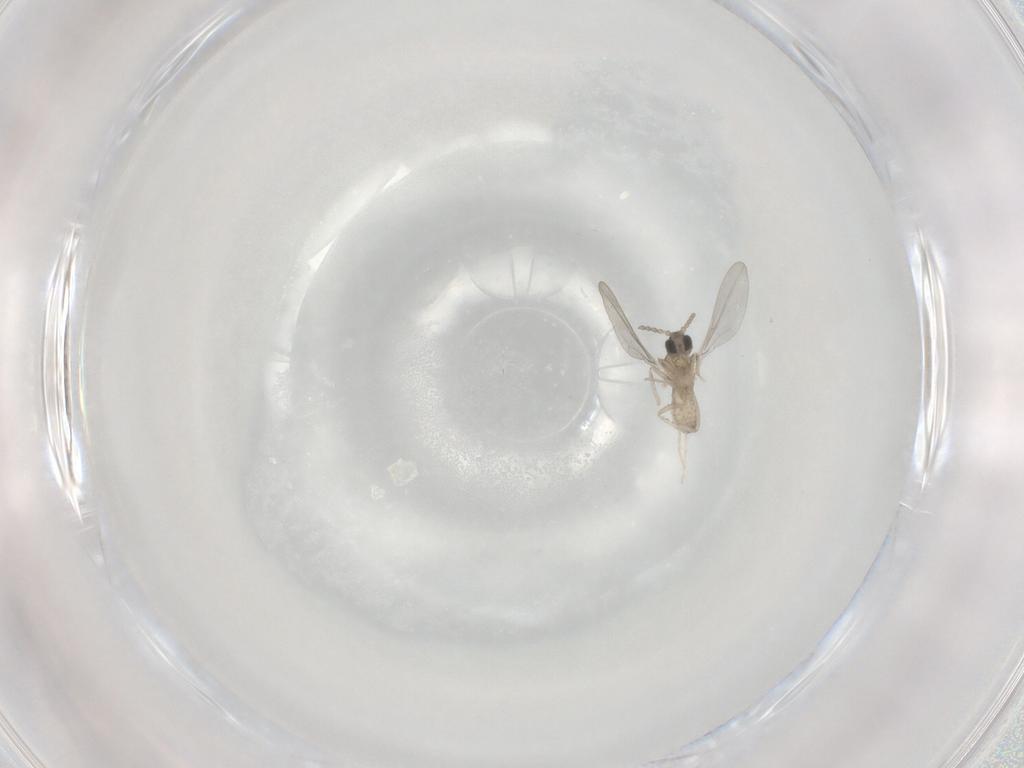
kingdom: Animalia
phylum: Arthropoda
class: Insecta
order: Diptera
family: Cecidomyiidae
